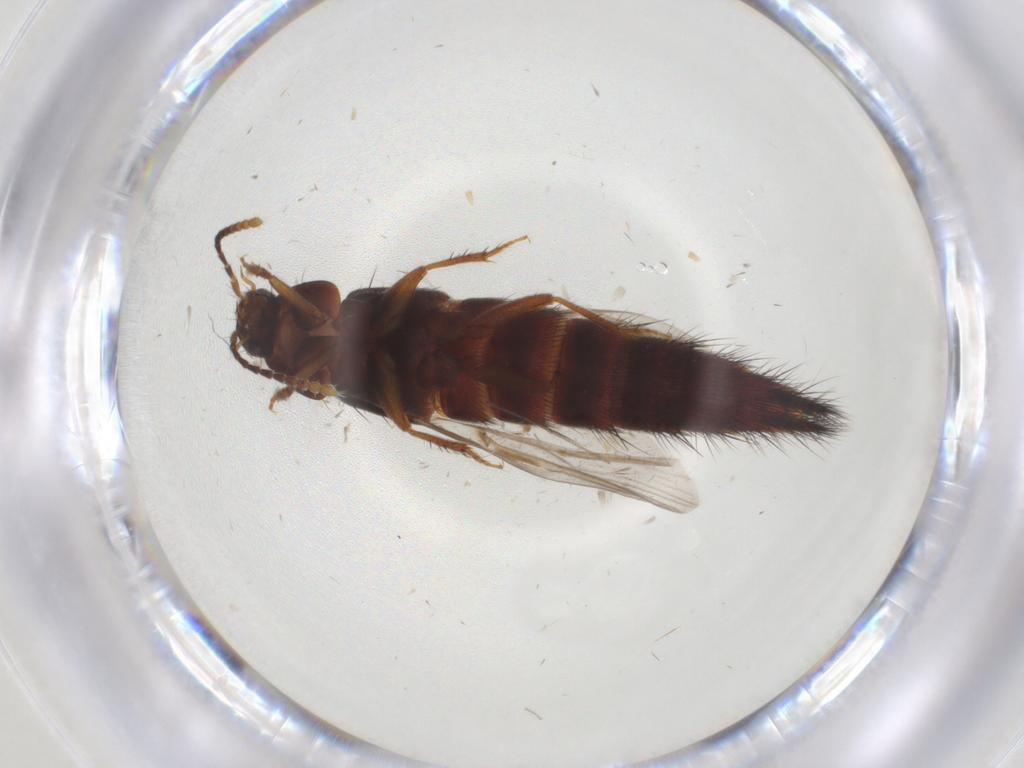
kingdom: Animalia
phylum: Arthropoda
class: Insecta
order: Coleoptera
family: Staphylinidae
